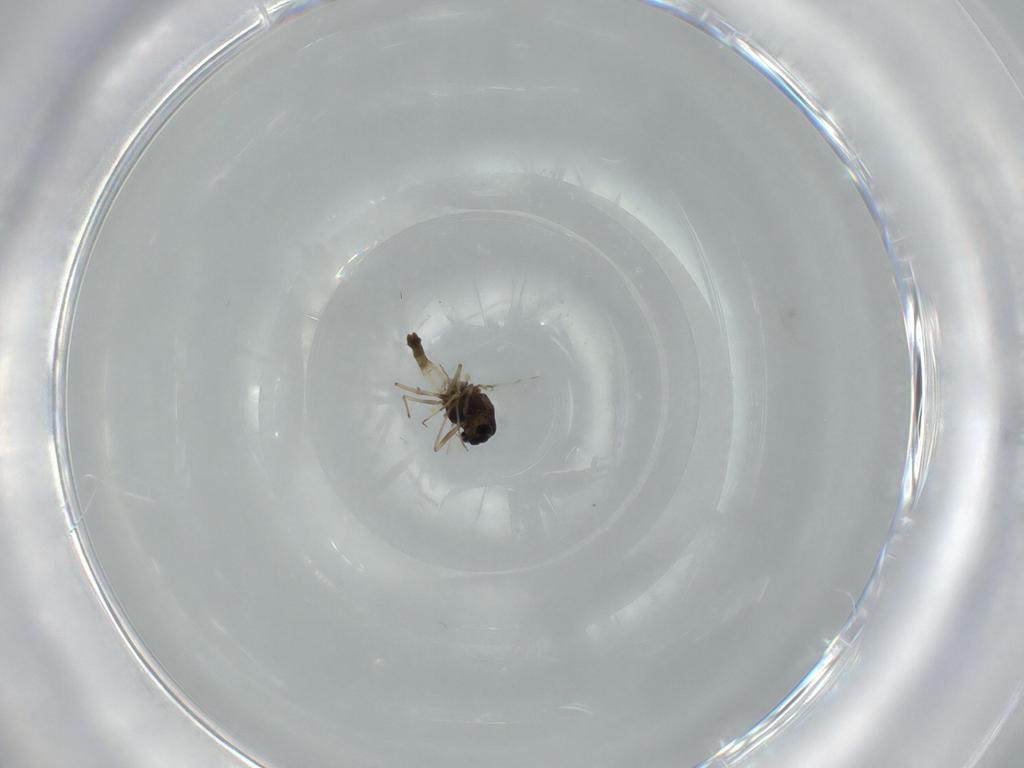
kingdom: Animalia
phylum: Arthropoda
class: Insecta
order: Diptera
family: Chironomidae
